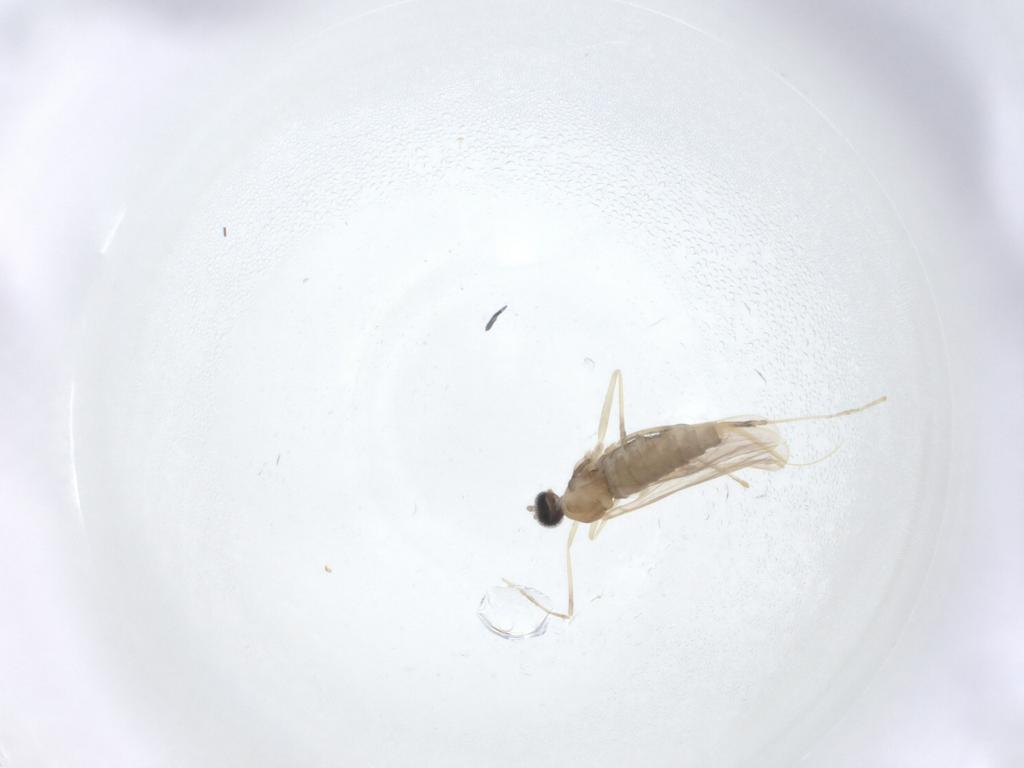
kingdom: Animalia
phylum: Arthropoda
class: Insecta
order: Diptera
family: Cecidomyiidae
